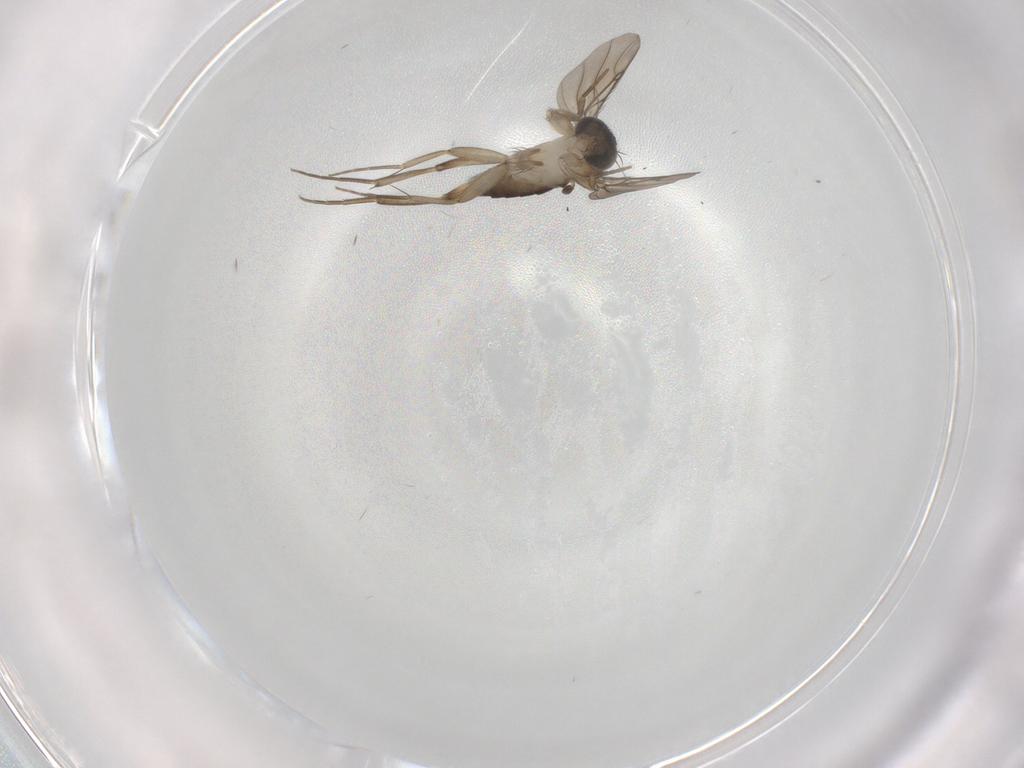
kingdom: Animalia
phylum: Arthropoda
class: Insecta
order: Diptera
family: Phoridae
